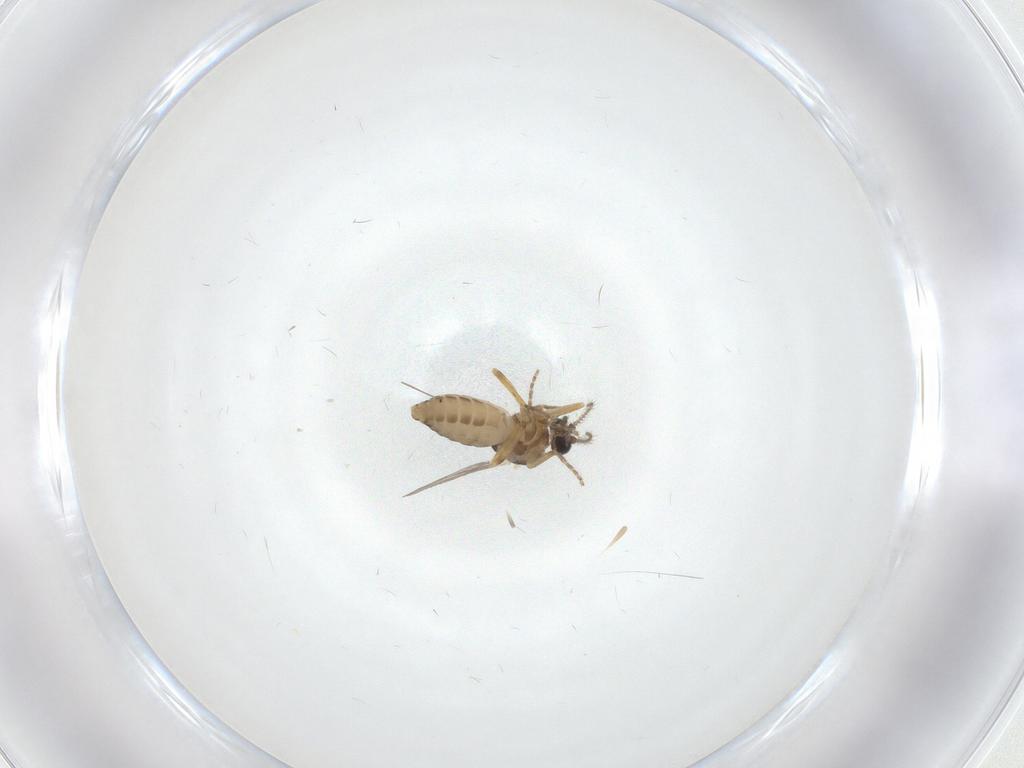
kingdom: Animalia
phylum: Arthropoda
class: Insecta
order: Diptera
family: Ceratopogonidae
